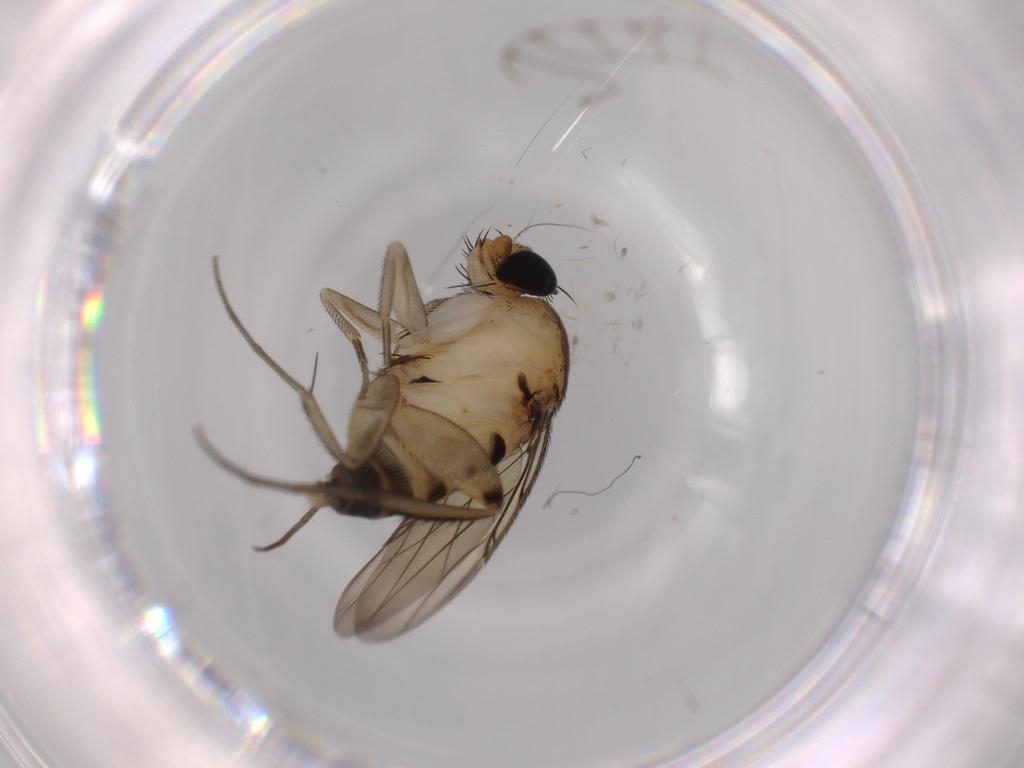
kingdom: Animalia
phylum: Arthropoda
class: Insecta
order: Diptera
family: Phoridae
